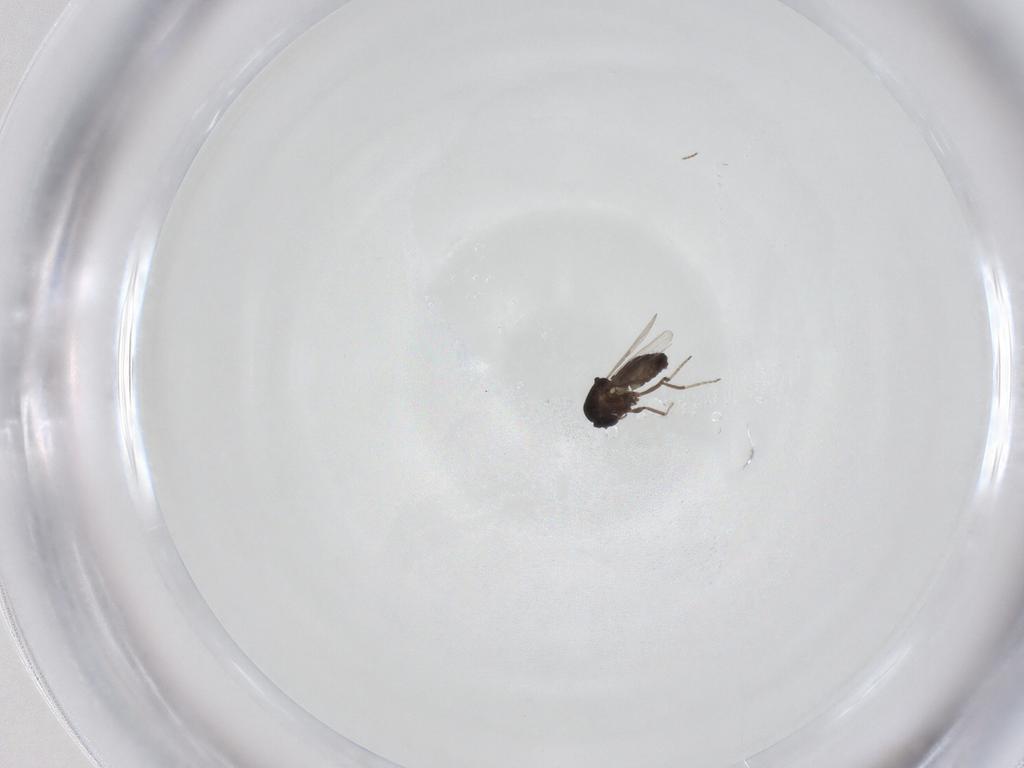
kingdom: Animalia
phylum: Arthropoda
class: Insecta
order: Diptera
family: Ceratopogonidae
